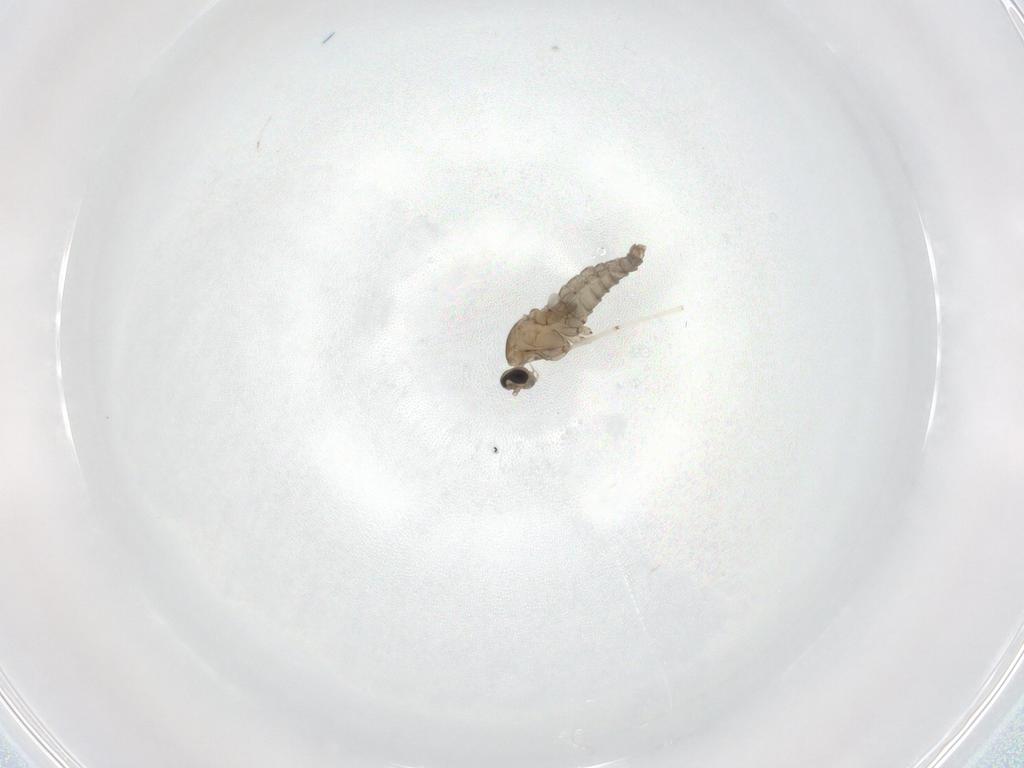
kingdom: Animalia
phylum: Arthropoda
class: Insecta
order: Diptera
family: Cecidomyiidae
